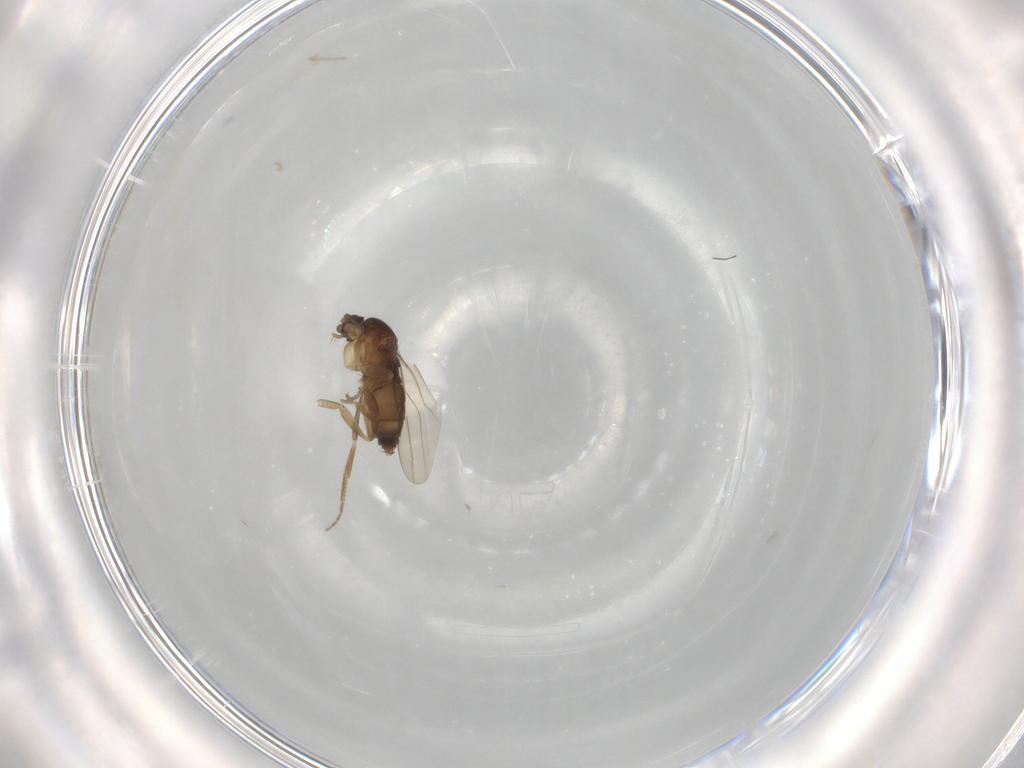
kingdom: Animalia
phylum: Arthropoda
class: Insecta
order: Diptera
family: Phoridae
